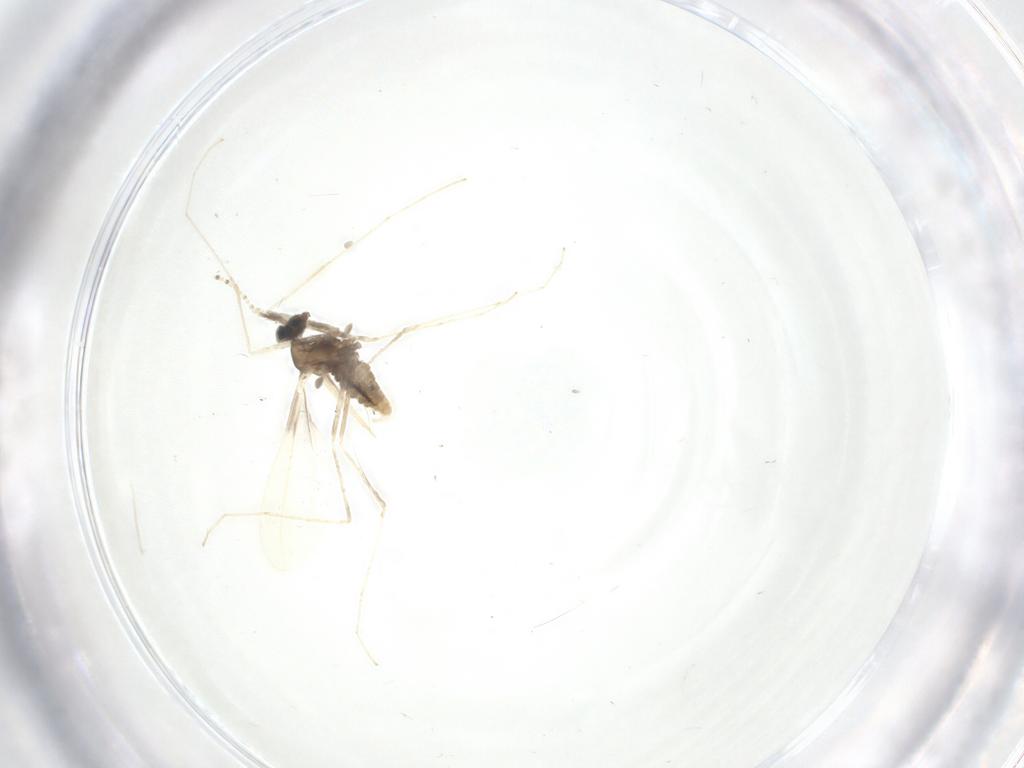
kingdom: Animalia
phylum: Arthropoda
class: Insecta
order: Diptera
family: Cecidomyiidae
